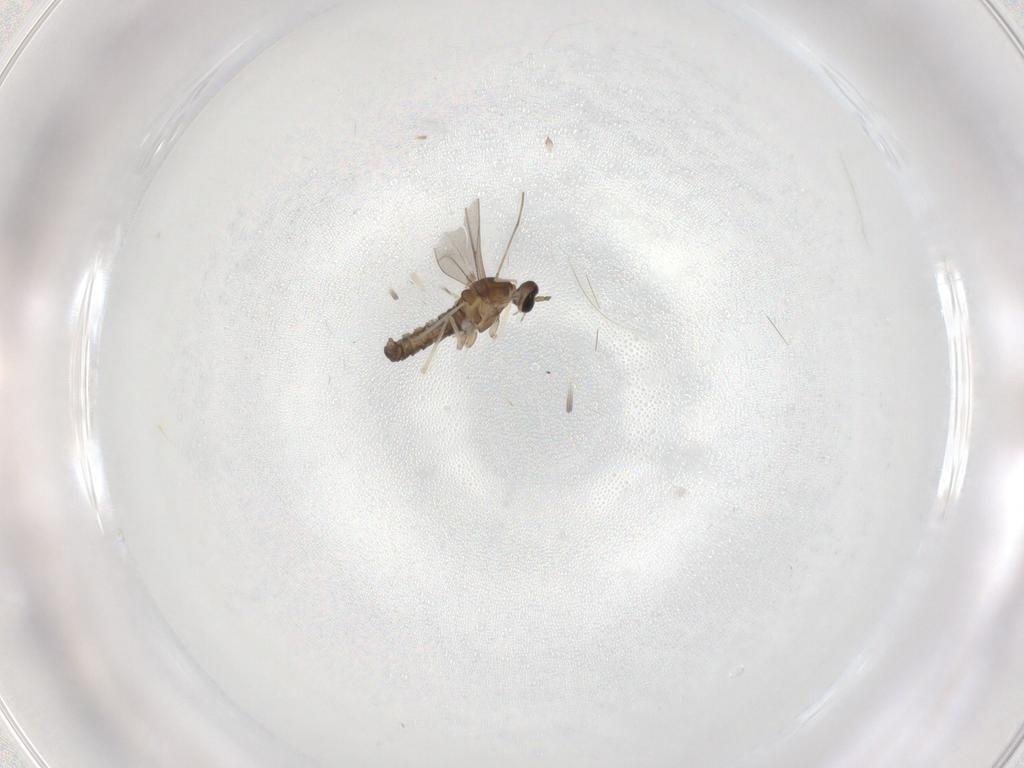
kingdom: Animalia
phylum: Arthropoda
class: Insecta
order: Diptera
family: Cecidomyiidae
